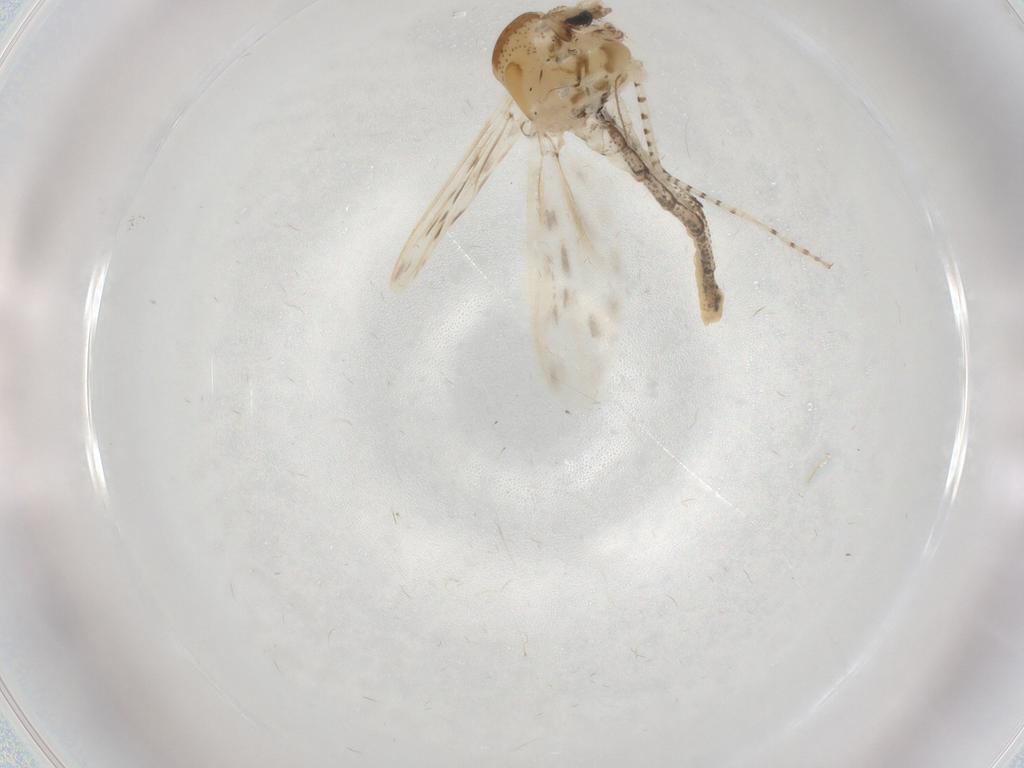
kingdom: Animalia
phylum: Arthropoda
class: Insecta
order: Diptera
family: Chaoboridae
